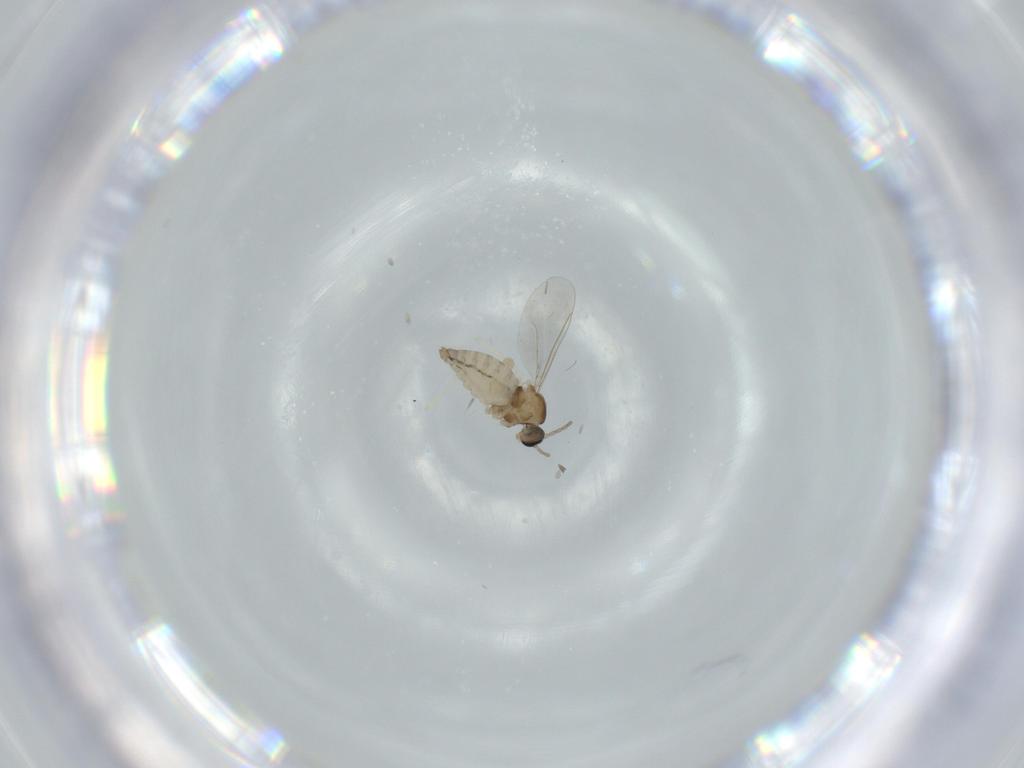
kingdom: Animalia
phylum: Arthropoda
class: Insecta
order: Diptera
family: Cecidomyiidae
